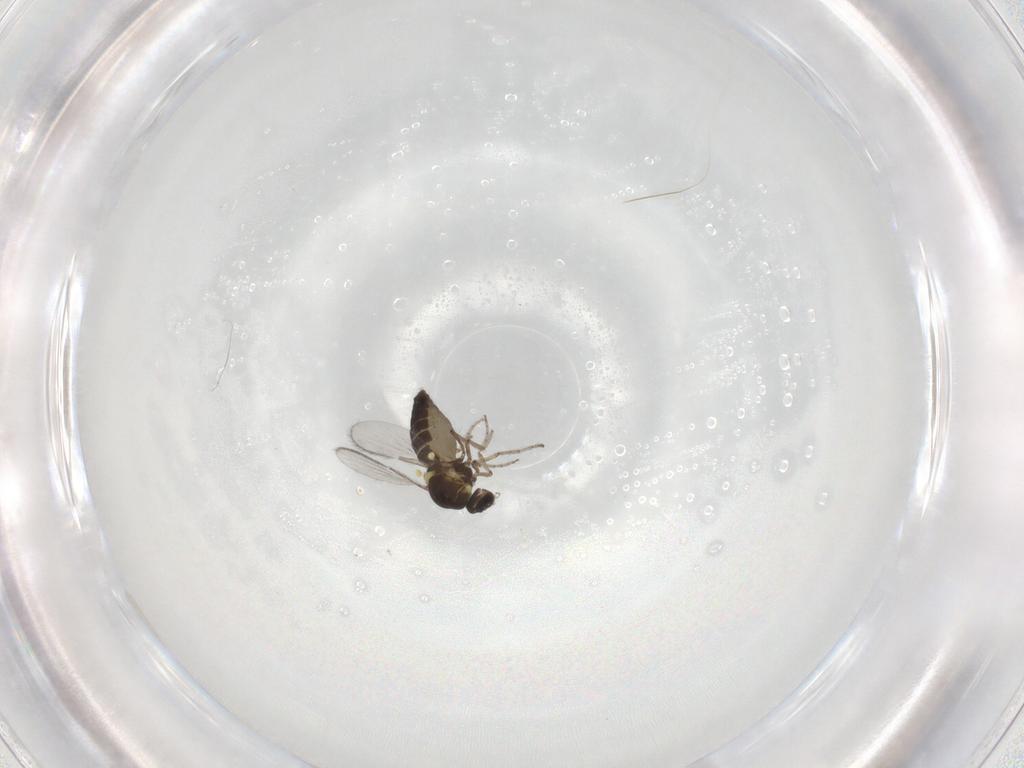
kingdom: Animalia
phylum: Arthropoda
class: Insecta
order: Diptera
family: Ceratopogonidae
